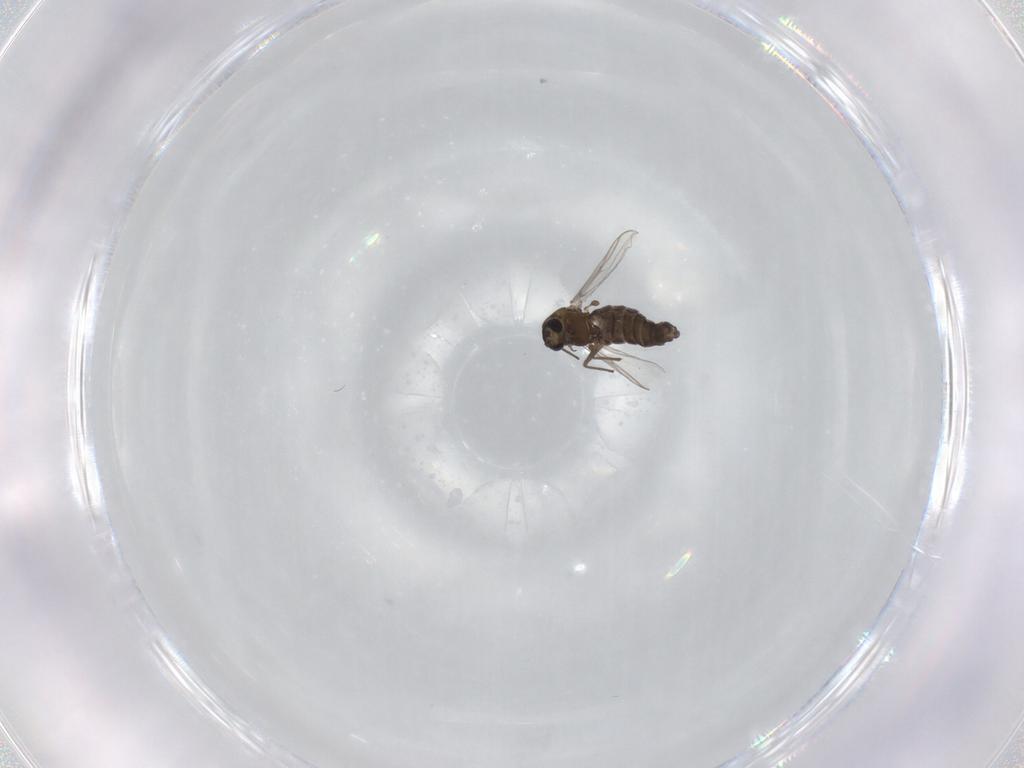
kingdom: Animalia
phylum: Arthropoda
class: Insecta
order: Diptera
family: Chironomidae
